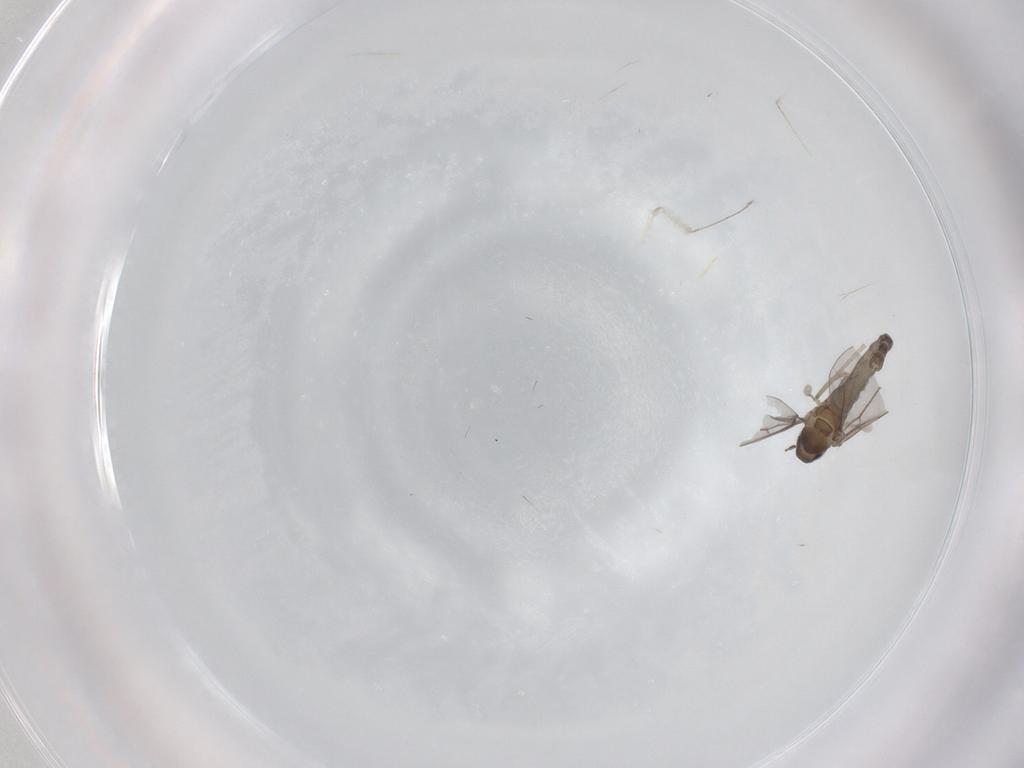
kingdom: Animalia
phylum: Arthropoda
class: Insecta
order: Diptera
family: Cecidomyiidae
